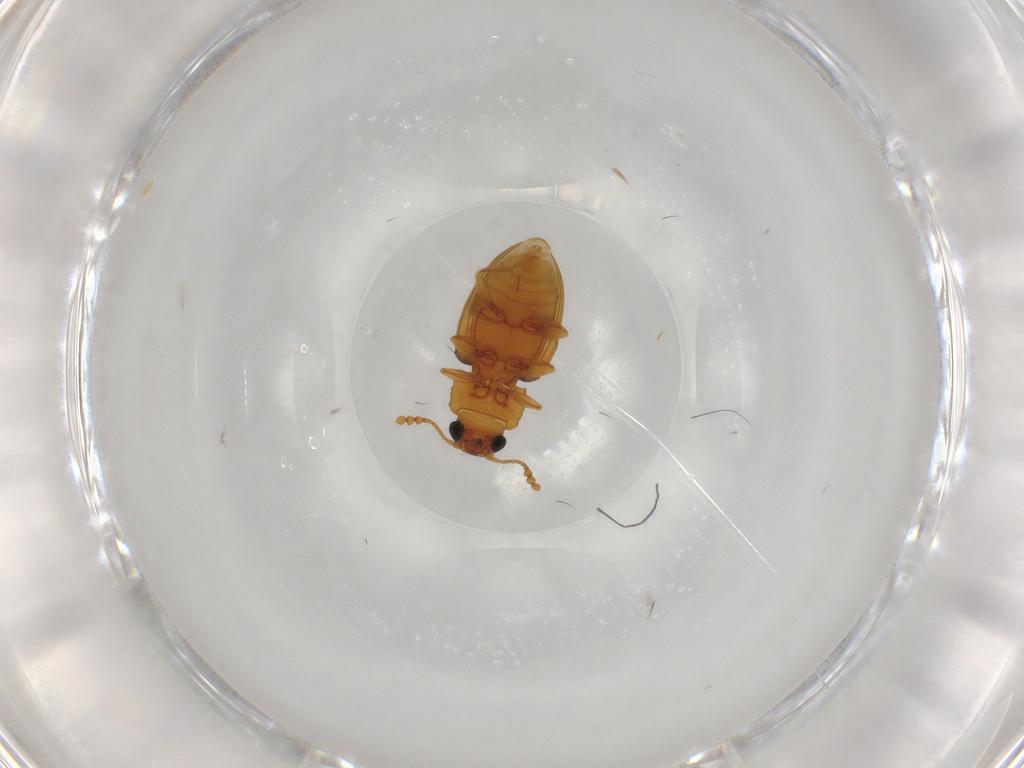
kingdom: Animalia
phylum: Arthropoda
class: Insecta
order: Coleoptera
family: Erotylidae
